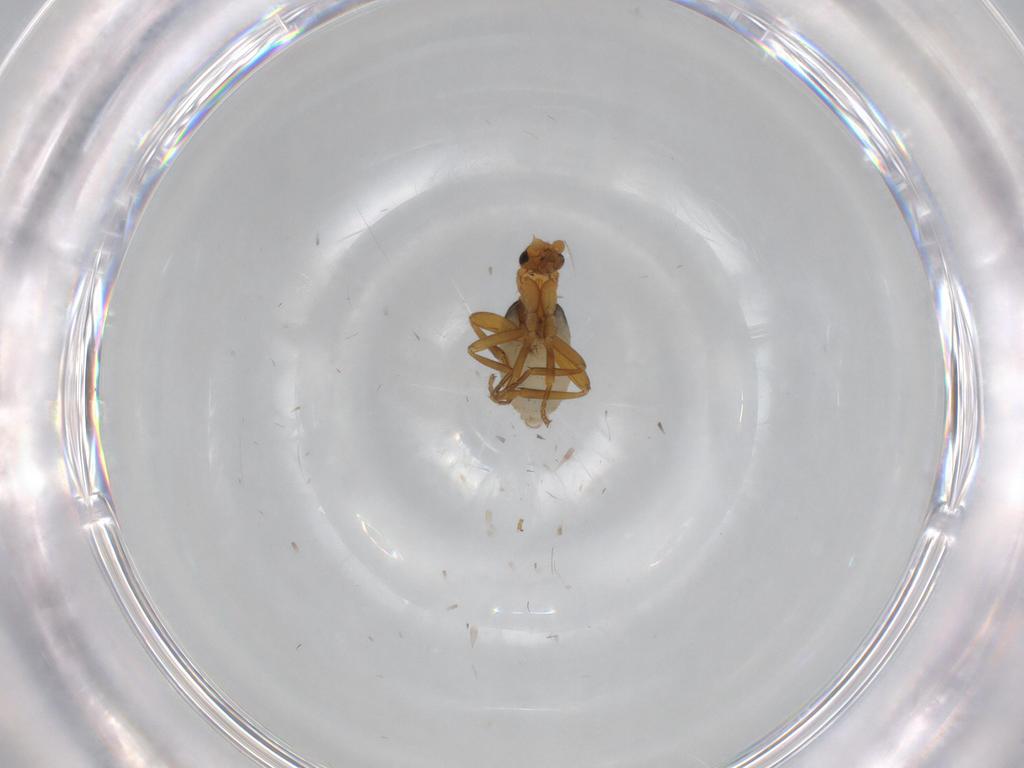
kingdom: Animalia
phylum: Arthropoda
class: Insecta
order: Diptera
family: Phoridae
